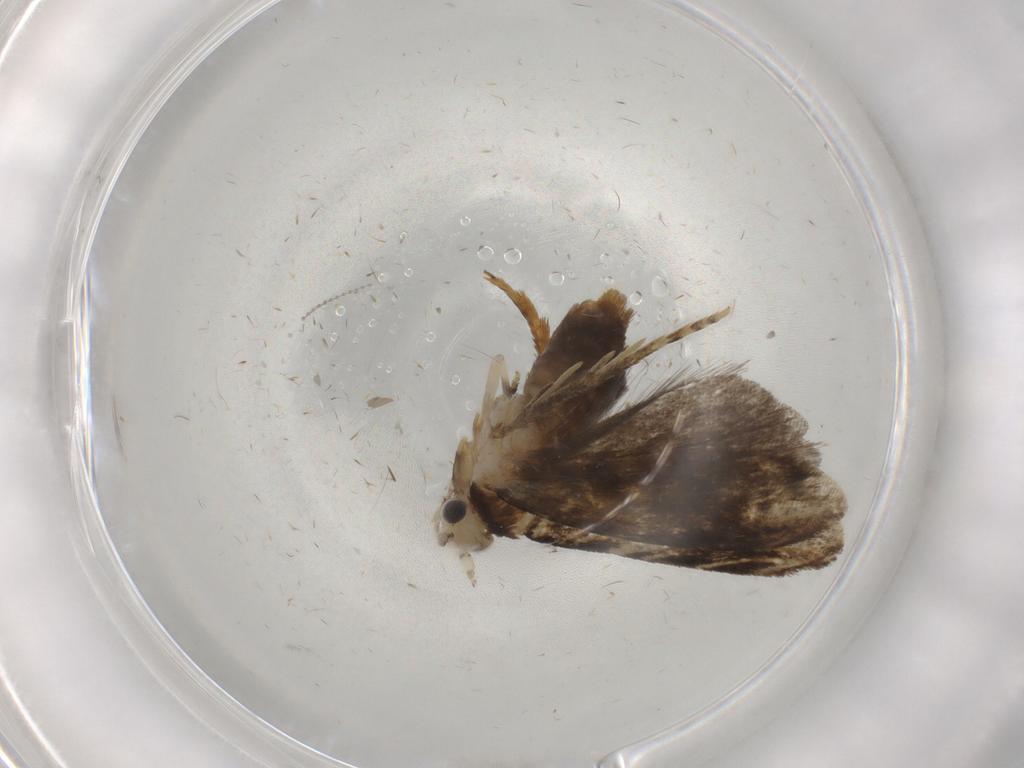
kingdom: Animalia
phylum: Arthropoda
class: Insecta
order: Lepidoptera
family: Tineidae
